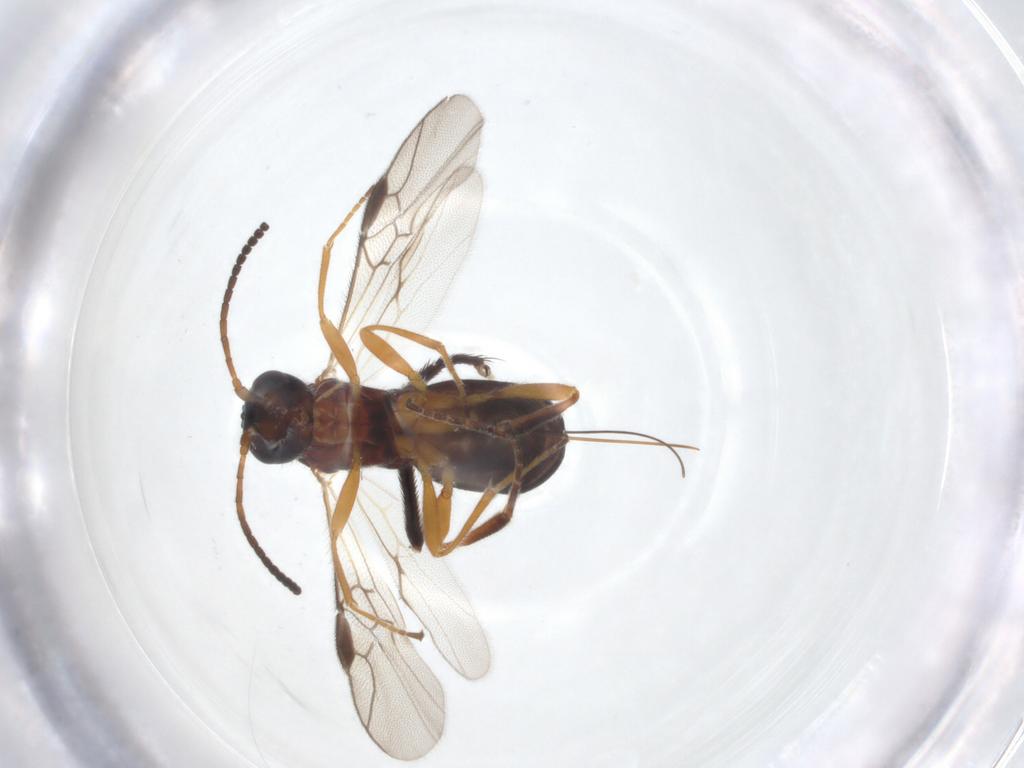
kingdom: Animalia
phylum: Arthropoda
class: Insecta
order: Hymenoptera
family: Braconidae
